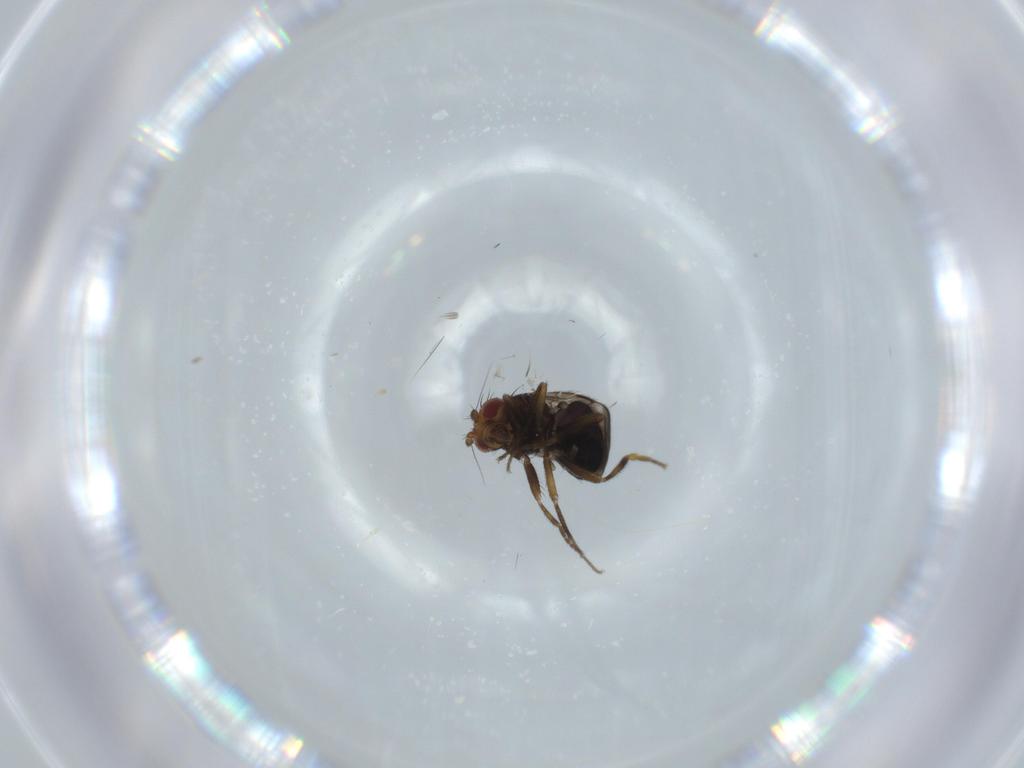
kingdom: Animalia
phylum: Arthropoda
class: Insecta
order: Diptera
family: Sphaeroceridae
